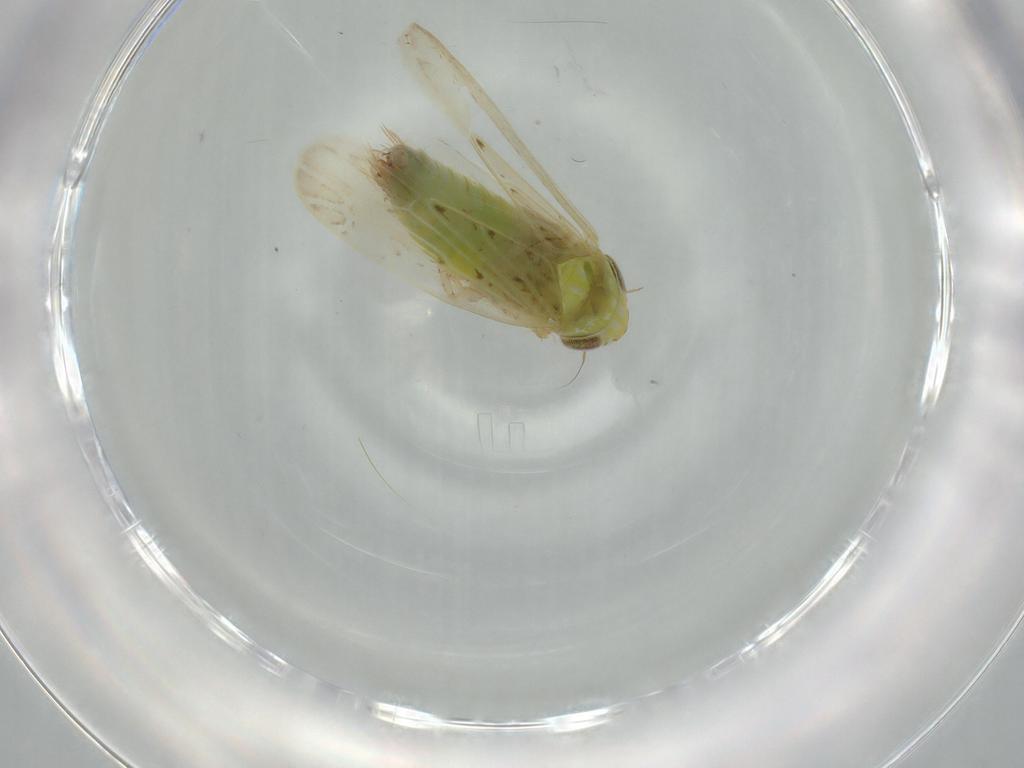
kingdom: Animalia
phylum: Arthropoda
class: Insecta
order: Hemiptera
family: Cicadellidae
